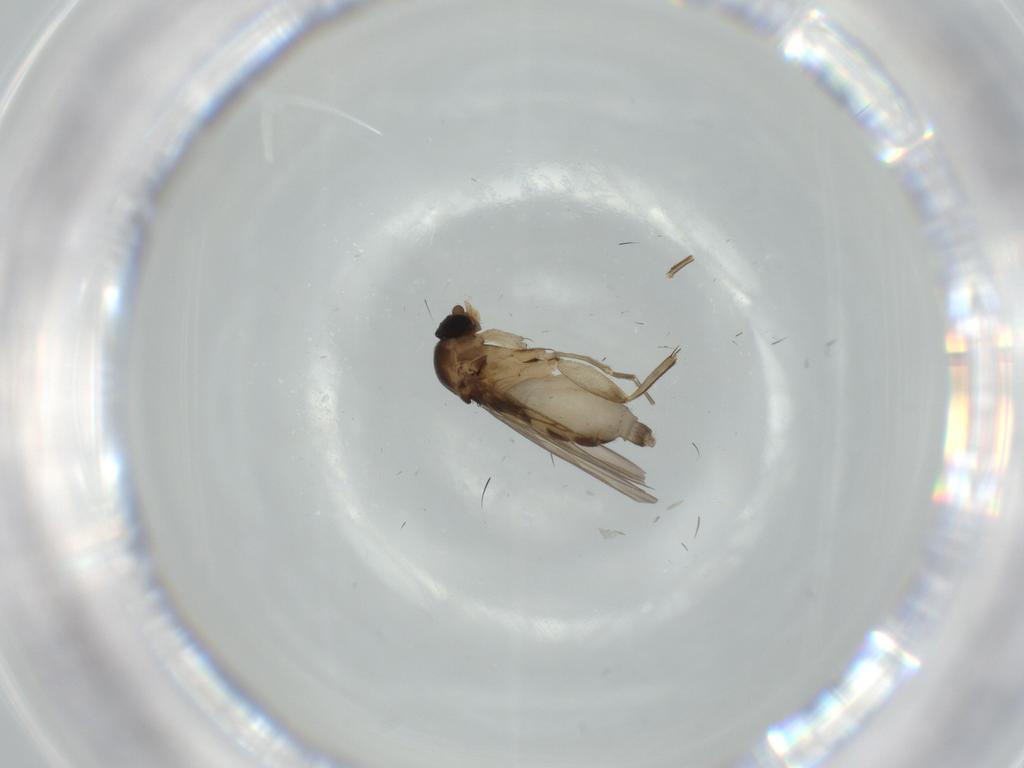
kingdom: Animalia
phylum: Arthropoda
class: Insecta
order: Diptera
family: Phoridae
